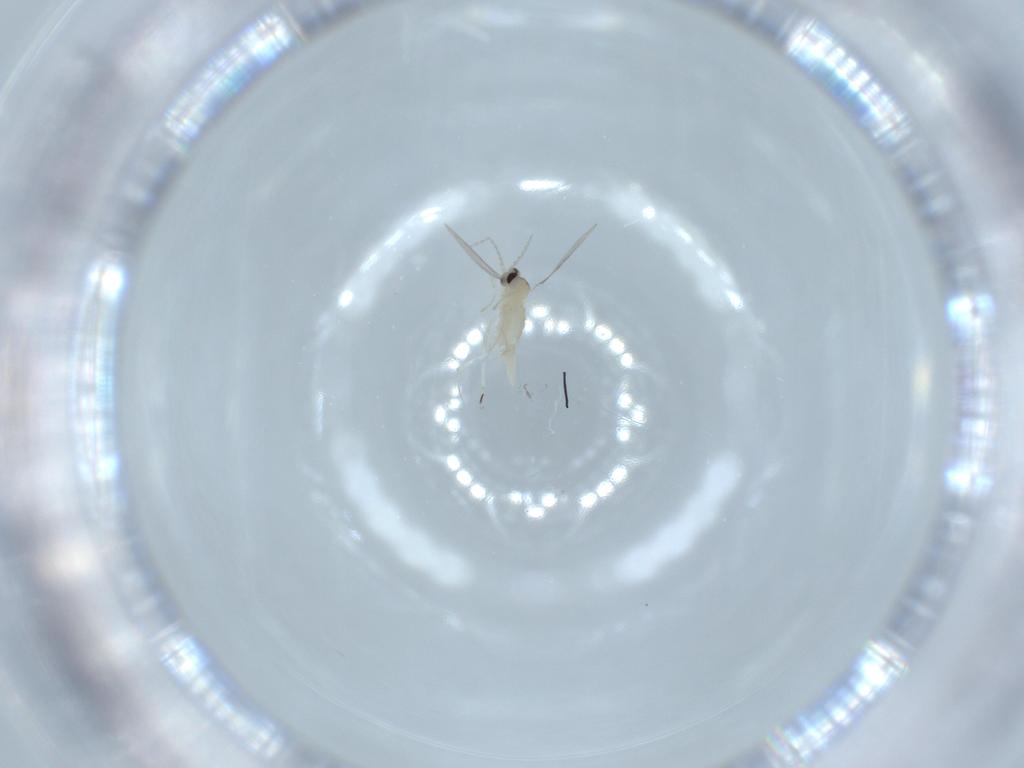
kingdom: Animalia
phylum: Arthropoda
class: Insecta
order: Diptera
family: Cecidomyiidae
